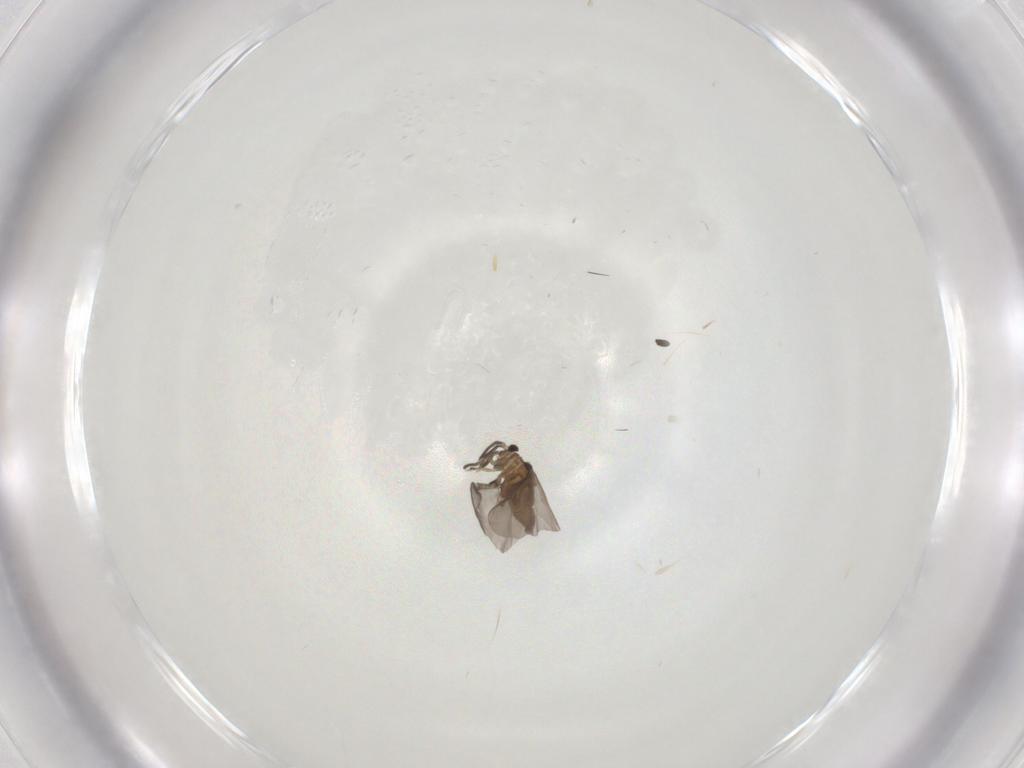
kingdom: Animalia
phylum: Arthropoda
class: Insecta
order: Strepsiptera
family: Myrmecolacidae
